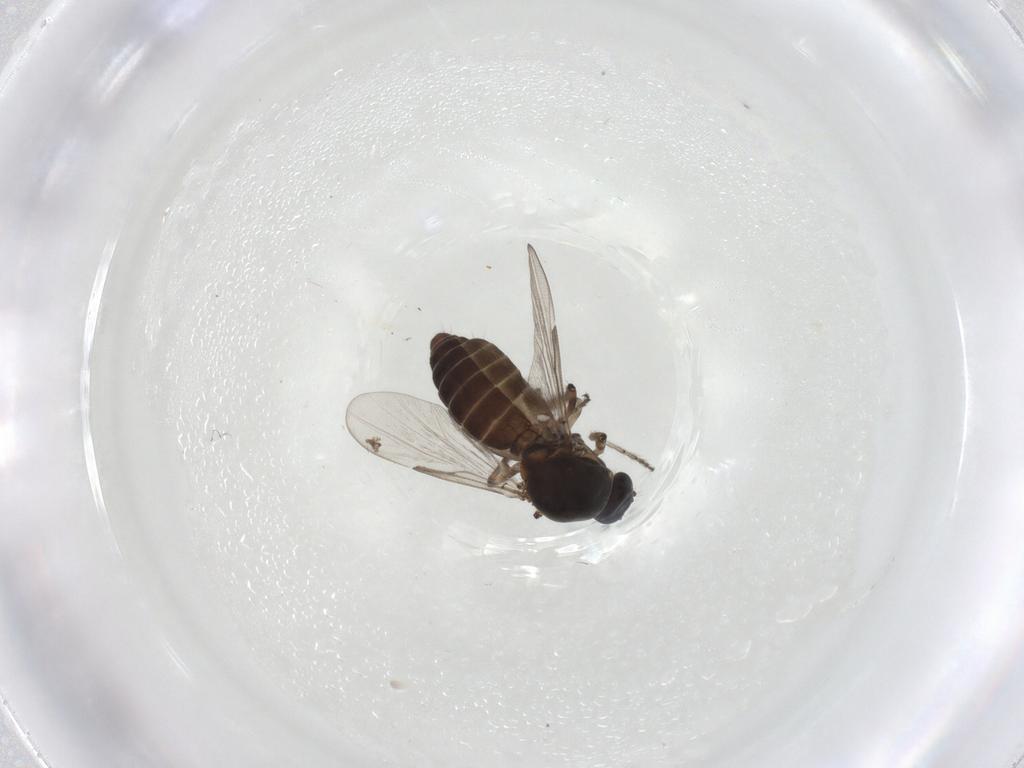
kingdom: Animalia
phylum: Arthropoda
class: Insecta
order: Diptera
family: Ceratopogonidae
